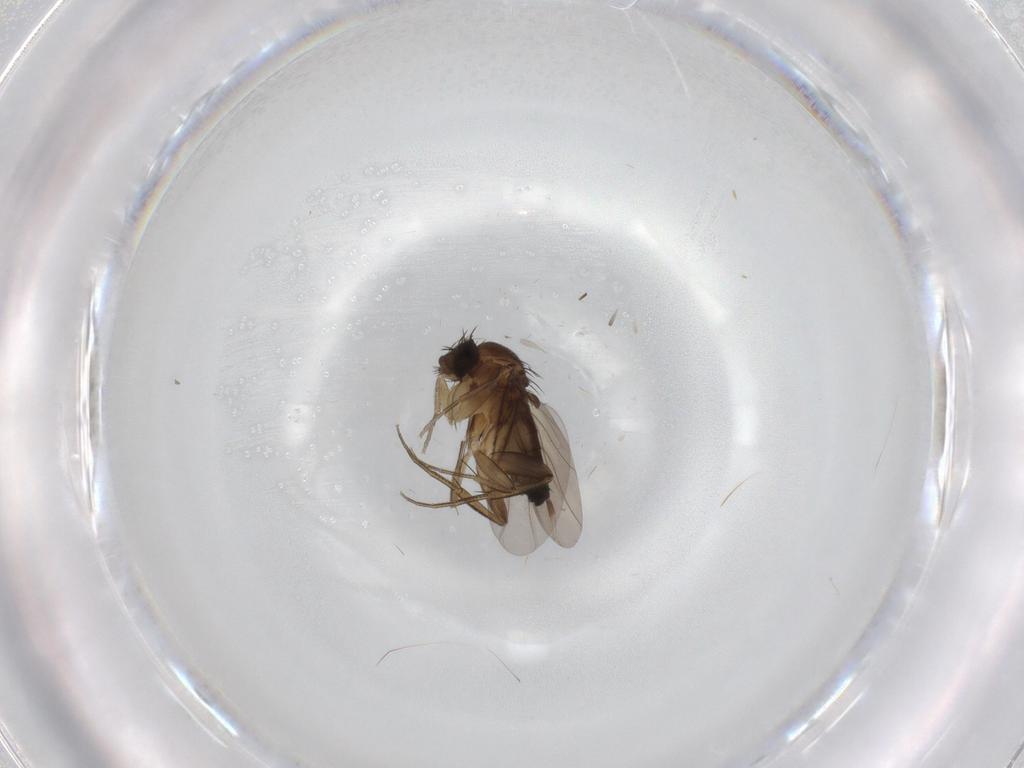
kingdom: Animalia
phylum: Arthropoda
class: Insecta
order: Diptera
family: Phoridae
